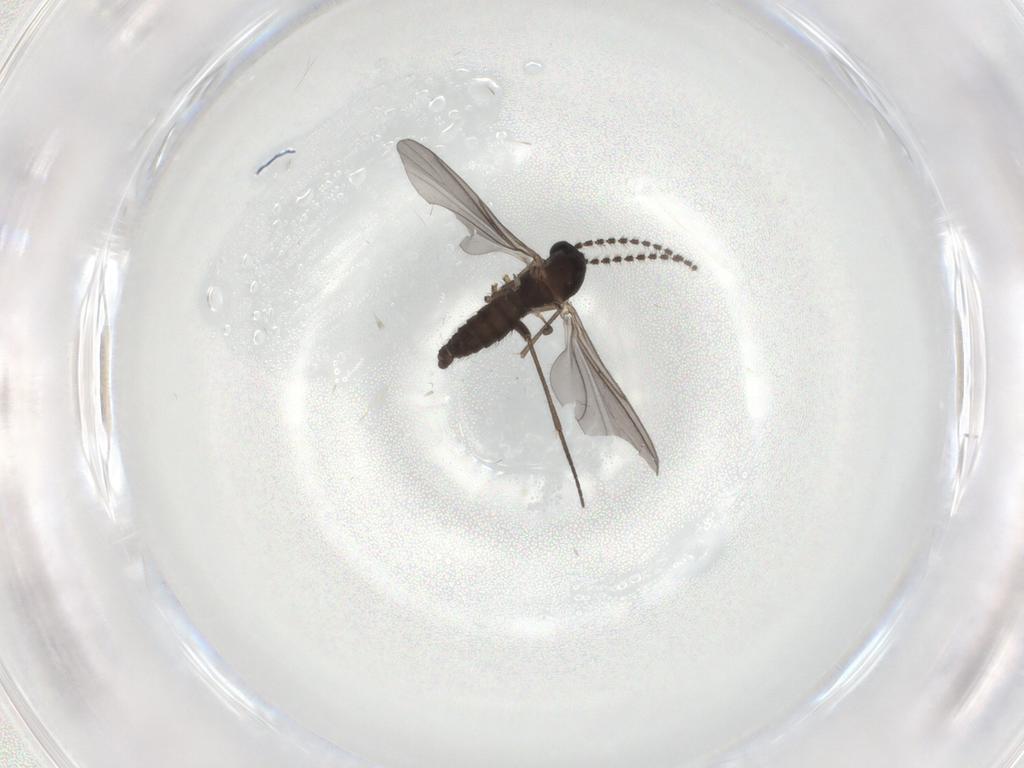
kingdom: Animalia
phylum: Arthropoda
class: Insecta
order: Diptera
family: Sciaridae
